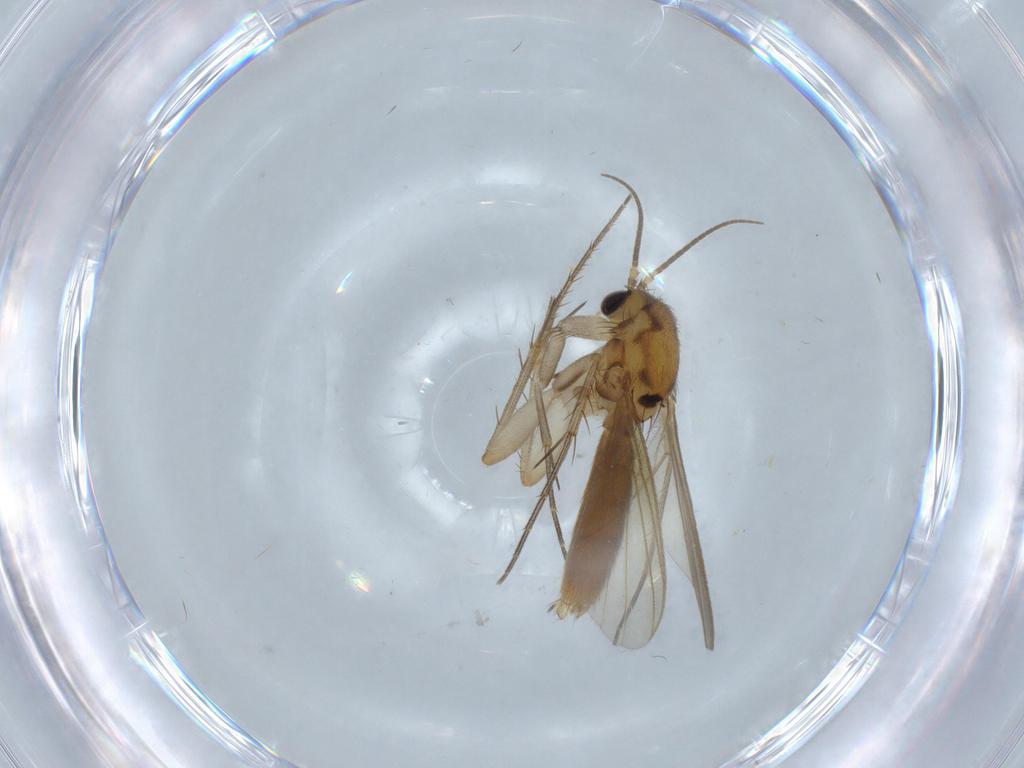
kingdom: Animalia
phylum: Arthropoda
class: Insecta
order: Diptera
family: Mycetophilidae
